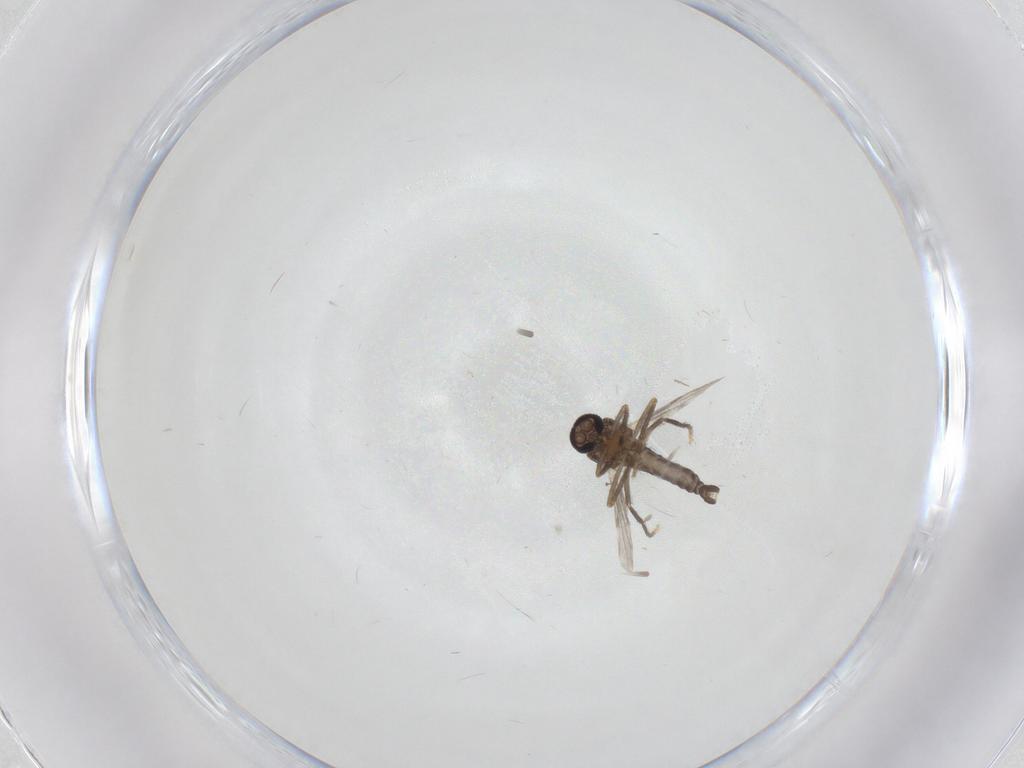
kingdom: Animalia
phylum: Arthropoda
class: Insecta
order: Diptera
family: Ceratopogonidae
